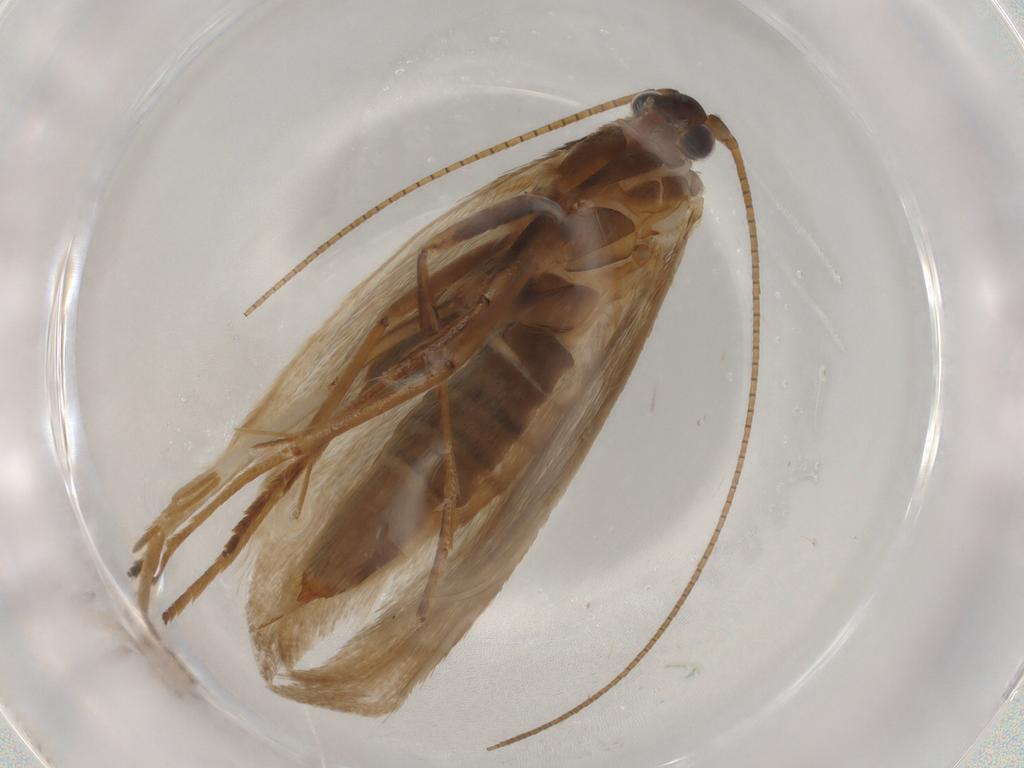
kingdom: Animalia
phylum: Arthropoda
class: Insecta
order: Lepidoptera
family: Adelidae
